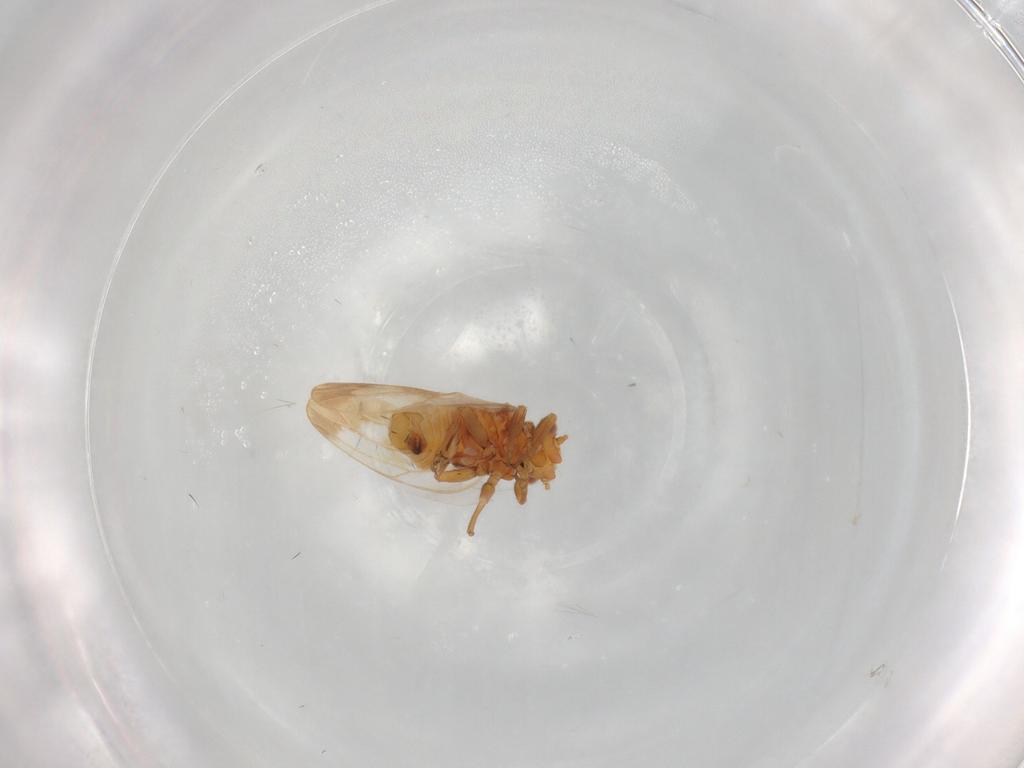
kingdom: Animalia
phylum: Arthropoda
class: Insecta
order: Hemiptera
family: Psyllidae
